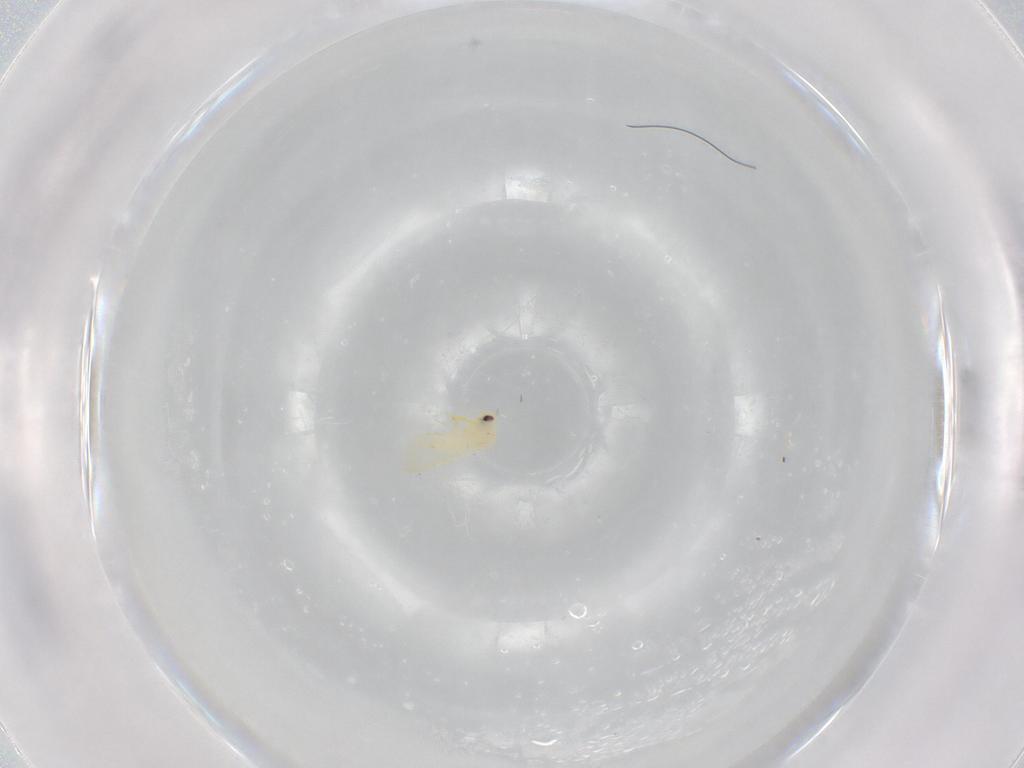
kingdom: Animalia
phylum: Arthropoda
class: Insecta
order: Hemiptera
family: Aleyrodidae
